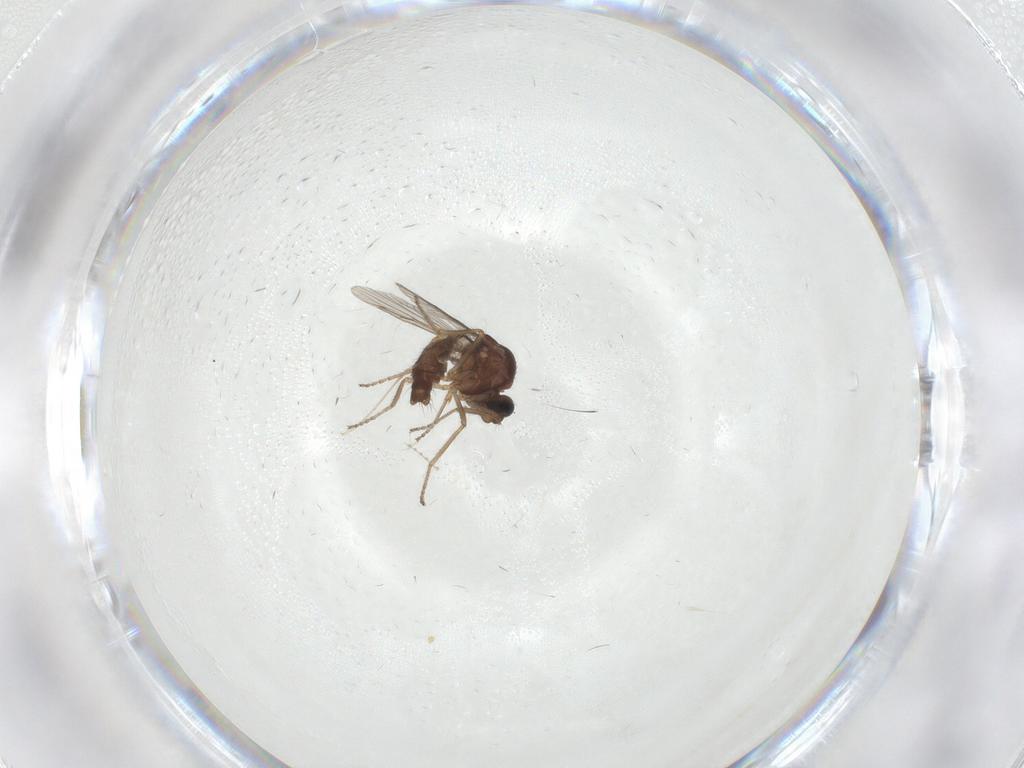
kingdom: Animalia
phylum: Arthropoda
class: Insecta
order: Diptera
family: Ceratopogonidae
